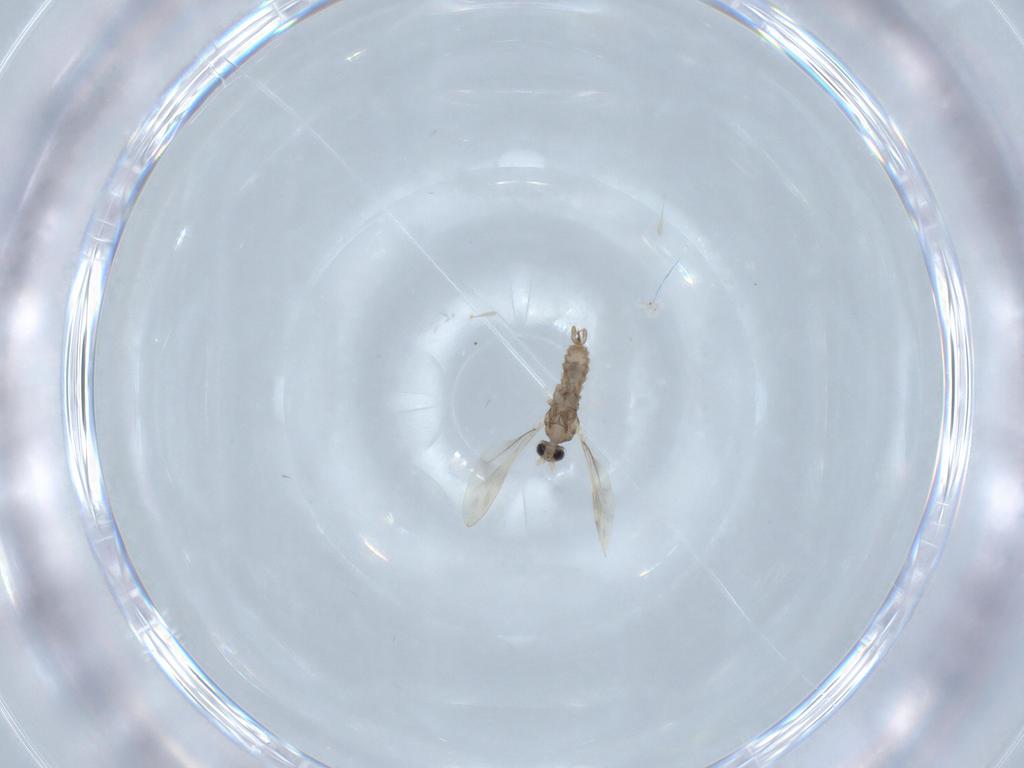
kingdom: Animalia
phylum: Arthropoda
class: Insecta
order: Diptera
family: Cecidomyiidae
